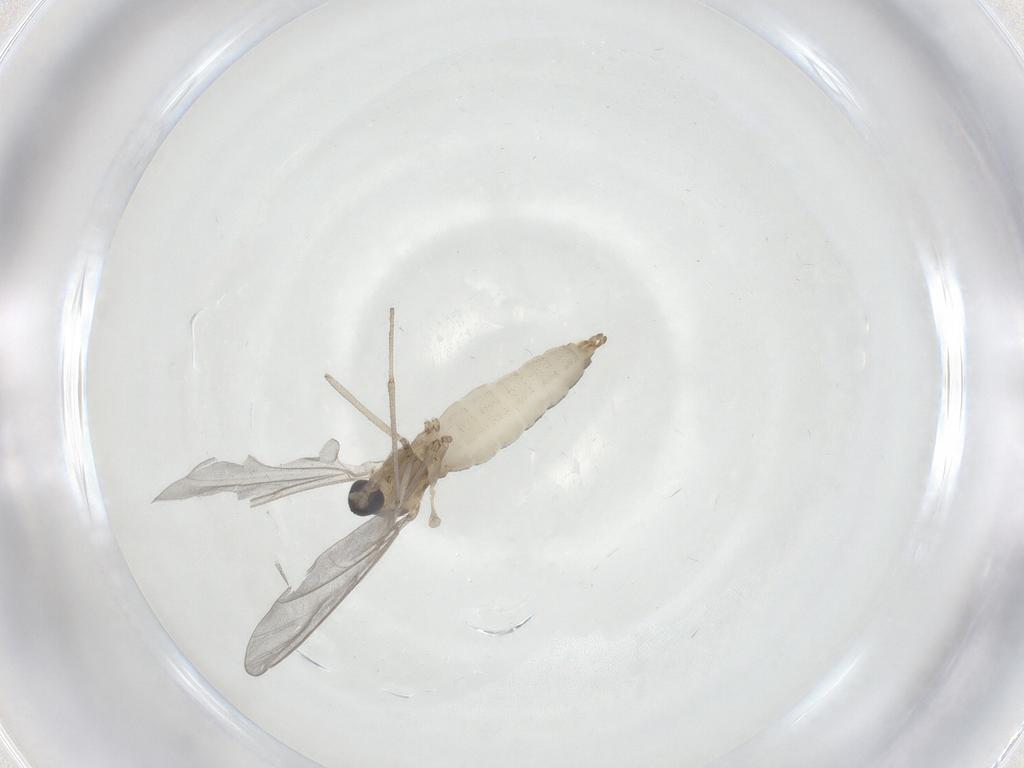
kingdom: Animalia
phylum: Arthropoda
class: Insecta
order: Diptera
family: Cecidomyiidae
